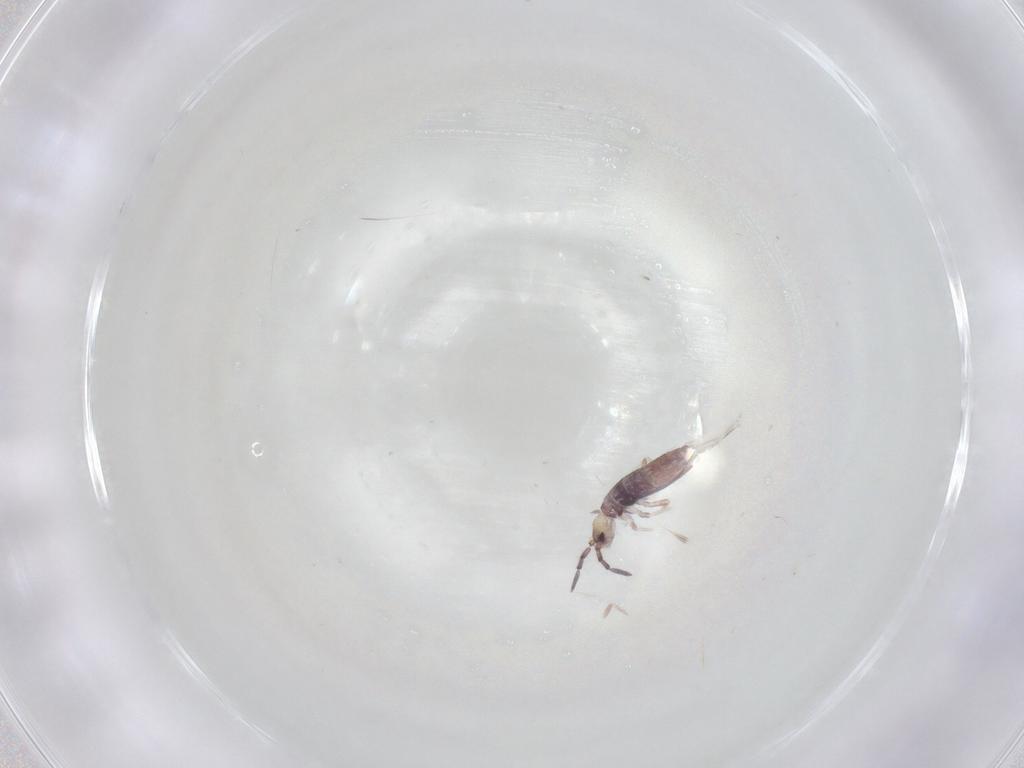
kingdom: Animalia
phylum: Arthropoda
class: Collembola
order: Entomobryomorpha
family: Entomobryidae
